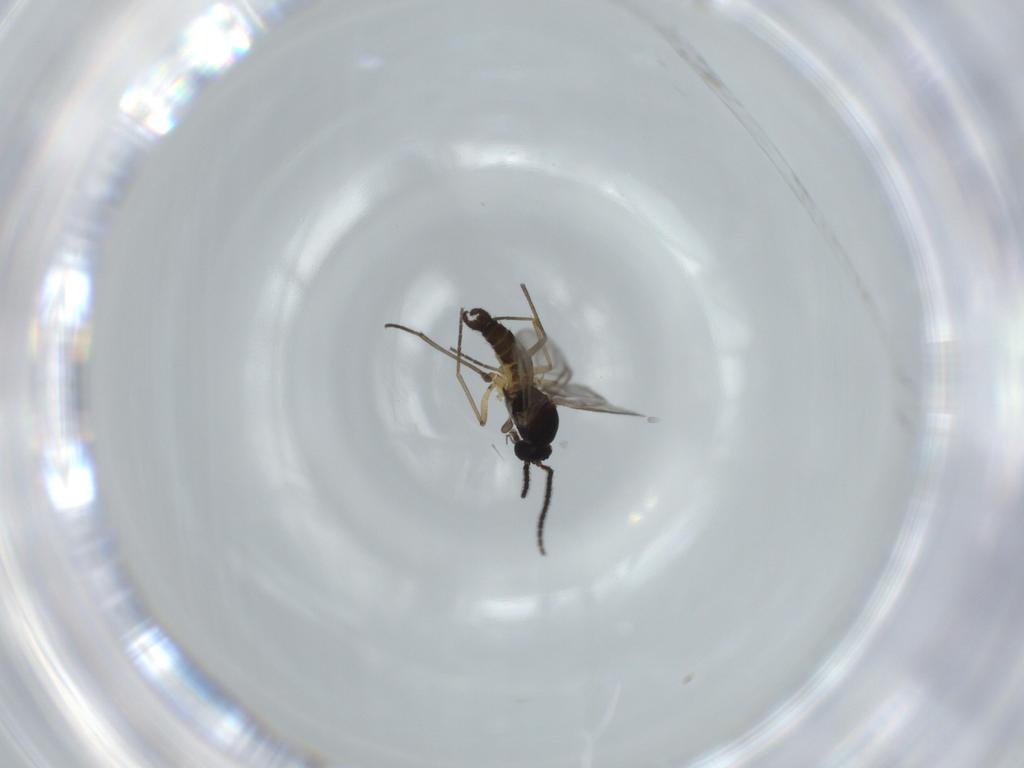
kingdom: Animalia
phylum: Arthropoda
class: Insecta
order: Diptera
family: Sciaridae
